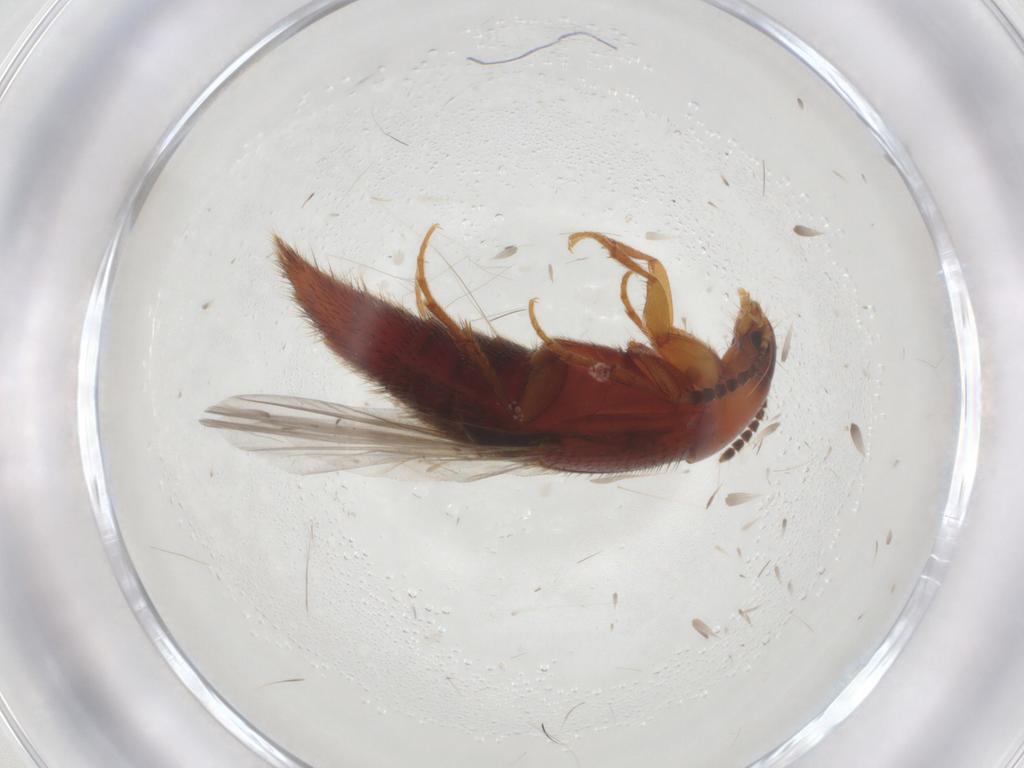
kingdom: Animalia
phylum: Arthropoda
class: Insecta
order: Coleoptera
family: Staphylinidae
